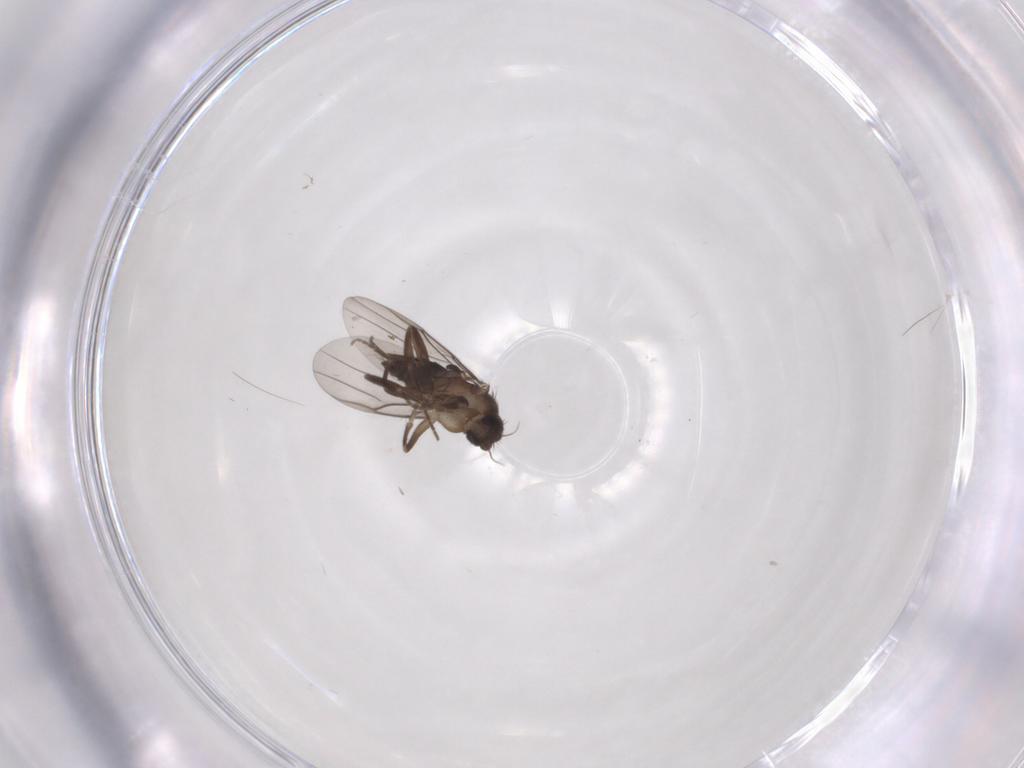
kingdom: Animalia
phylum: Arthropoda
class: Insecta
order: Diptera
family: Phoridae
